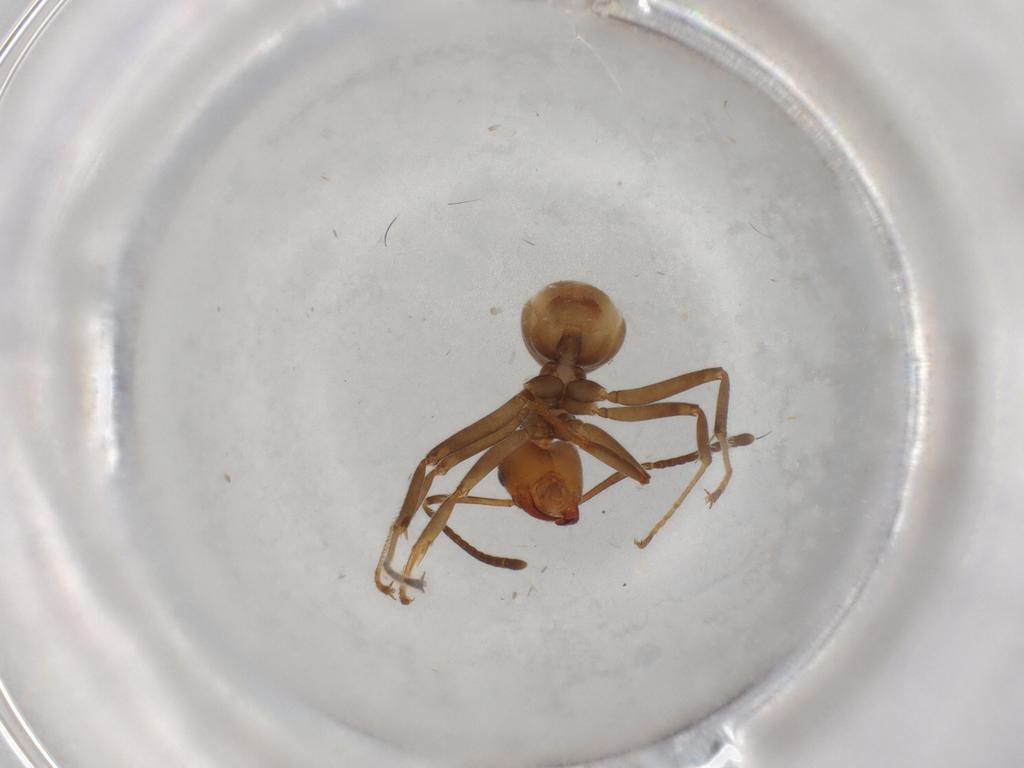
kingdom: Animalia
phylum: Arthropoda
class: Insecta
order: Hymenoptera
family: Formicidae
